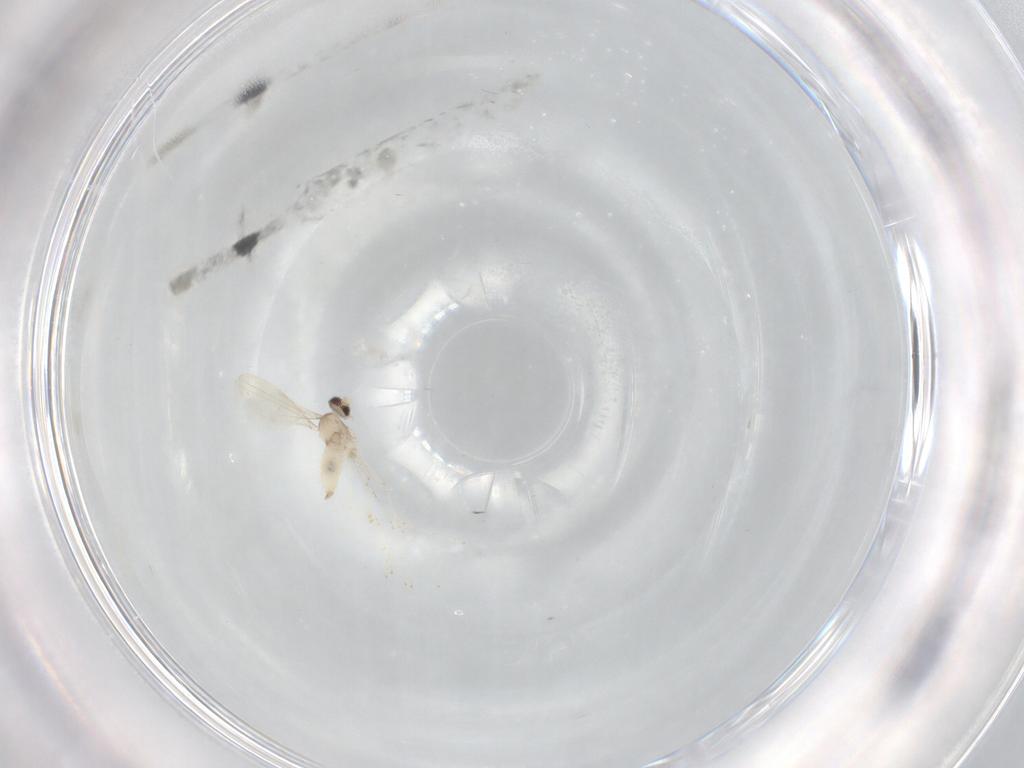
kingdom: Animalia
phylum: Arthropoda
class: Insecta
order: Diptera
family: Cecidomyiidae
